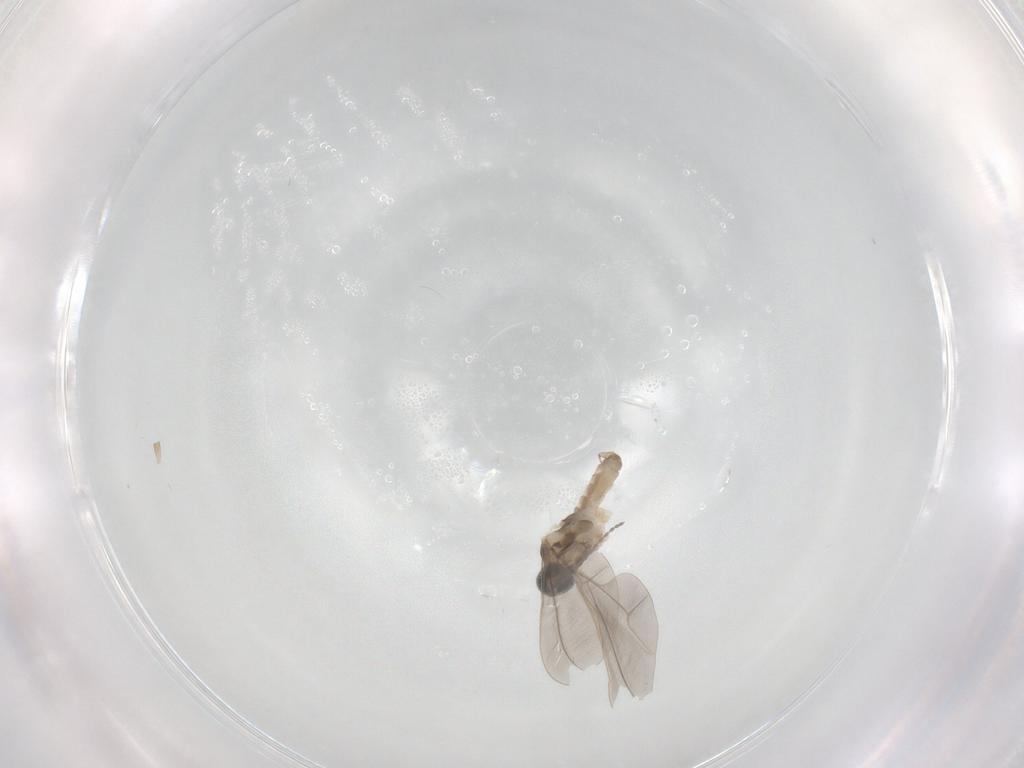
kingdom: Animalia
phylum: Arthropoda
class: Insecta
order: Diptera
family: Cecidomyiidae
